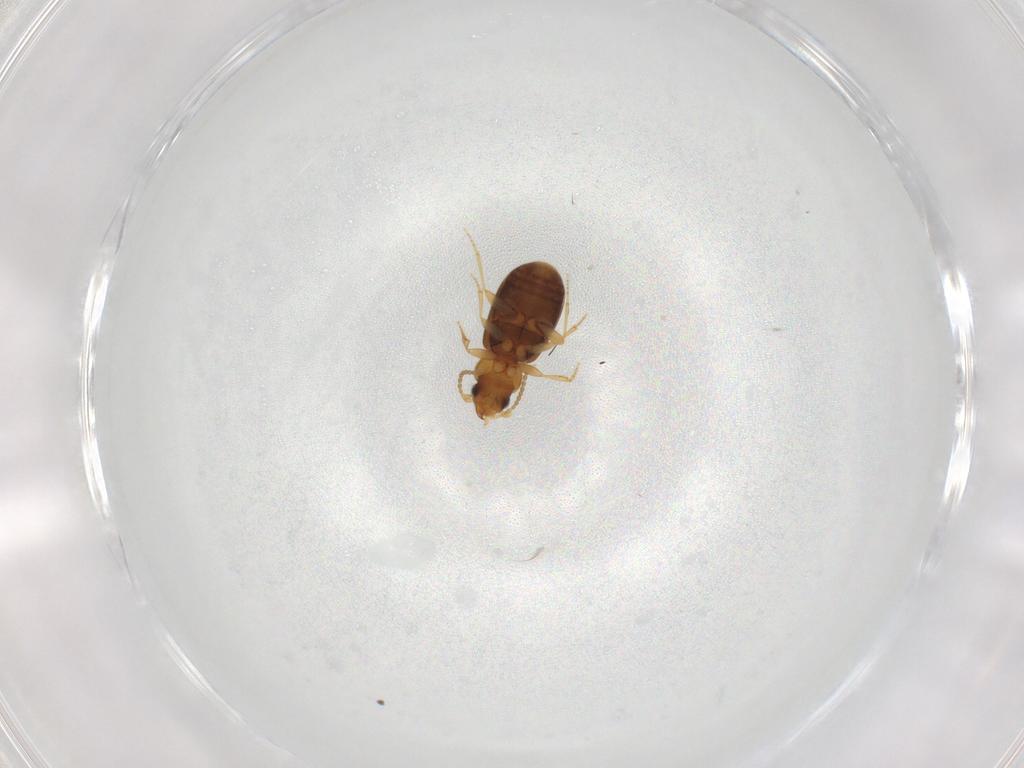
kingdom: Animalia
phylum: Arthropoda
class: Insecta
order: Coleoptera
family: Carabidae
